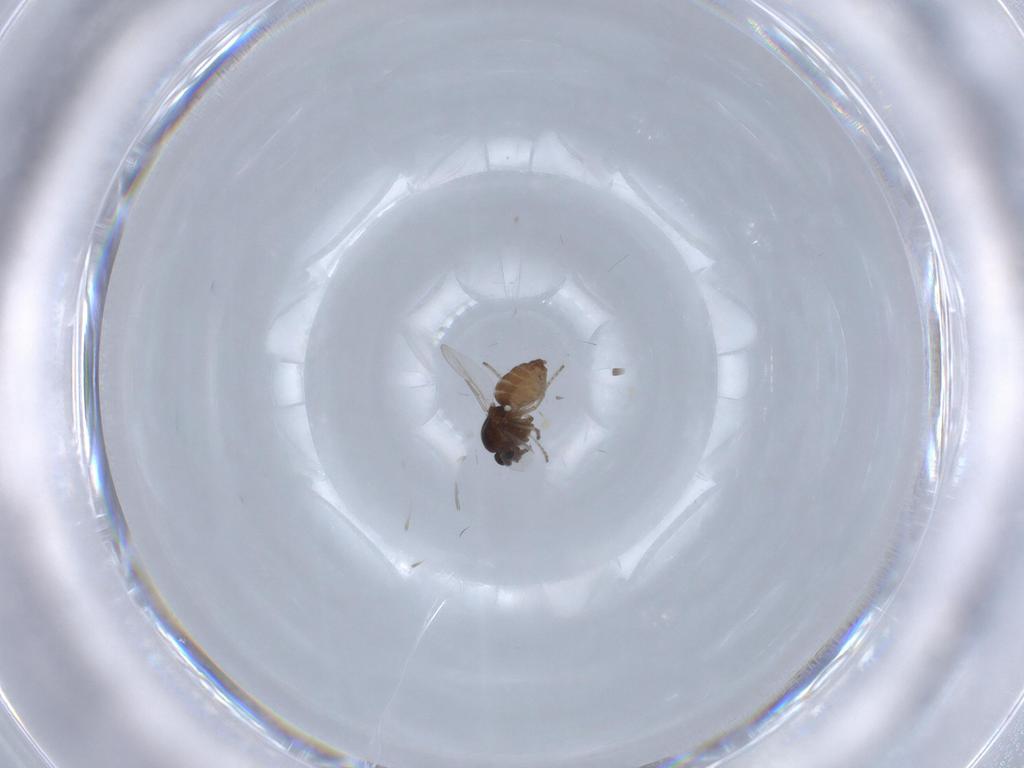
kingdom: Animalia
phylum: Arthropoda
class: Insecta
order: Diptera
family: Ceratopogonidae
